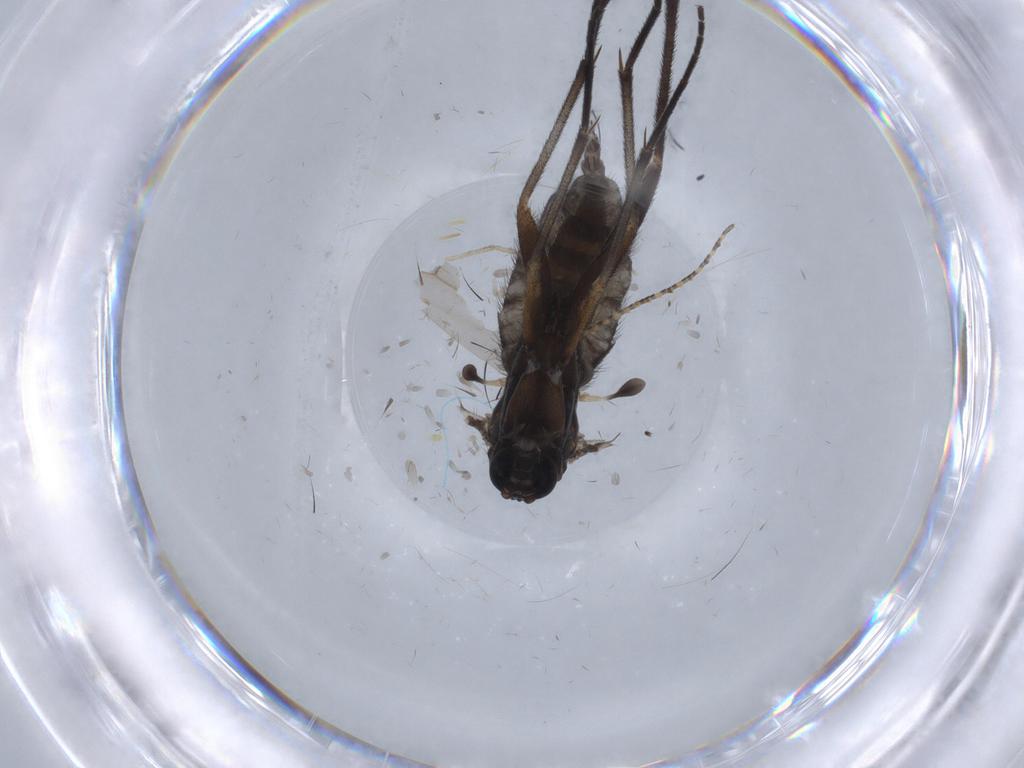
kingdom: Animalia
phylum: Arthropoda
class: Insecta
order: Diptera
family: Sciaridae
